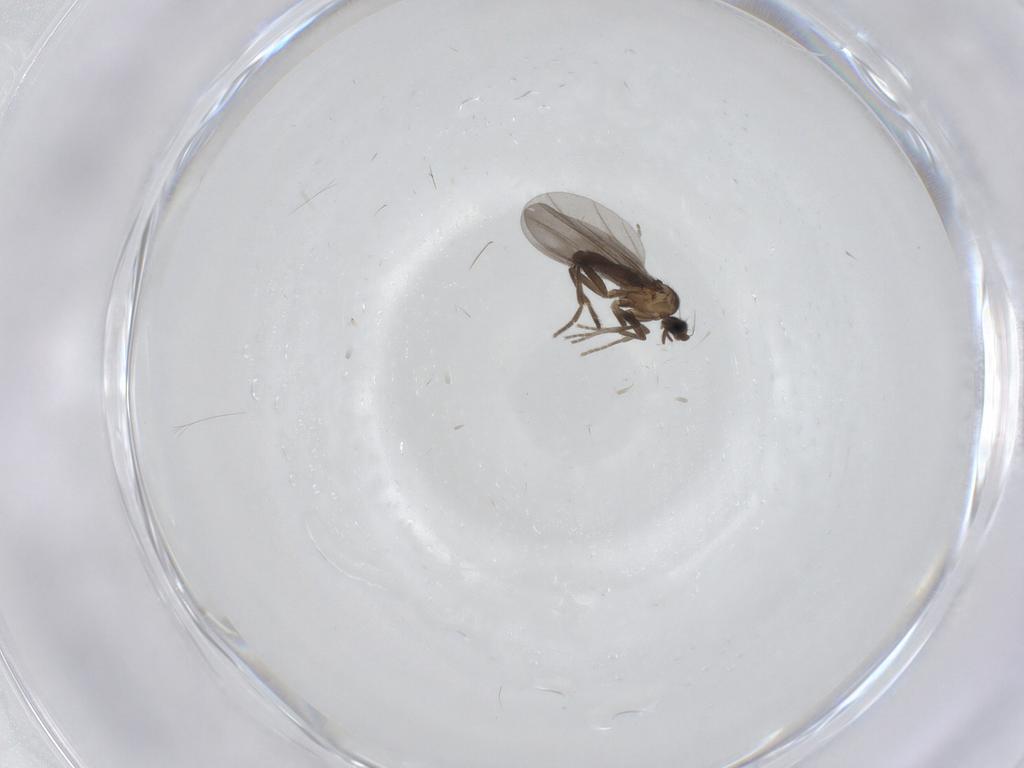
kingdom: Animalia
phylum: Arthropoda
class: Insecta
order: Diptera
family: Phoridae
